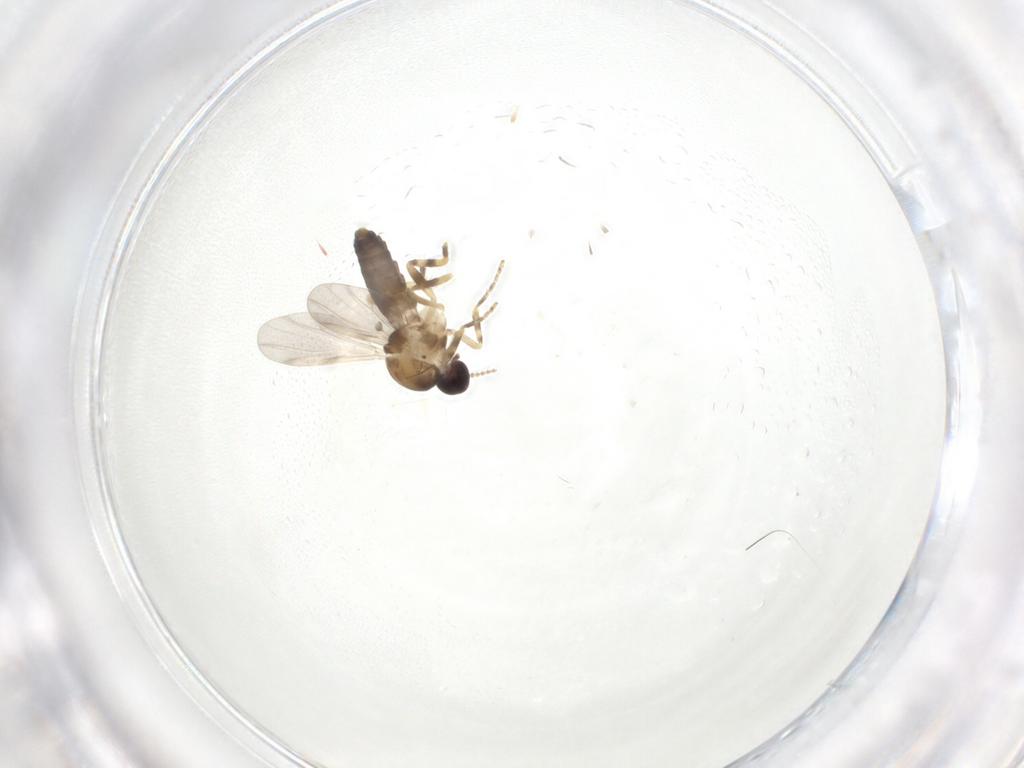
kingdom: Animalia
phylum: Arthropoda
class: Insecta
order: Diptera
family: Ceratopogonidae
